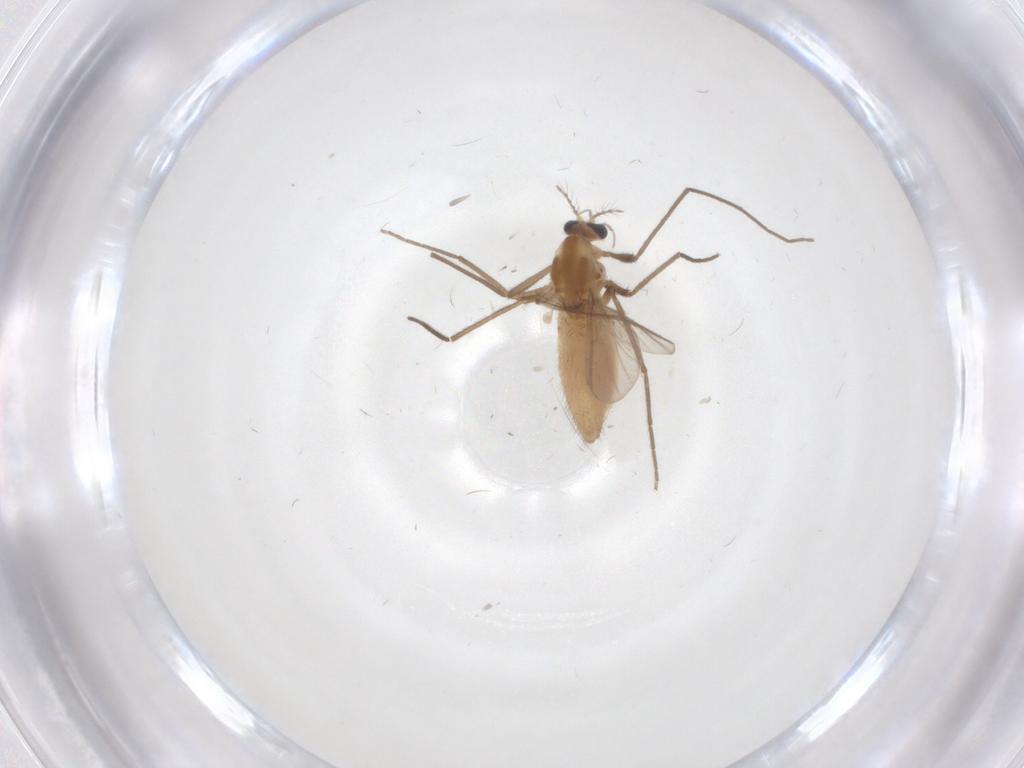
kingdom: Animalia
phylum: Arthropoda
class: Insecta
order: Diptera
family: Chironomidae
